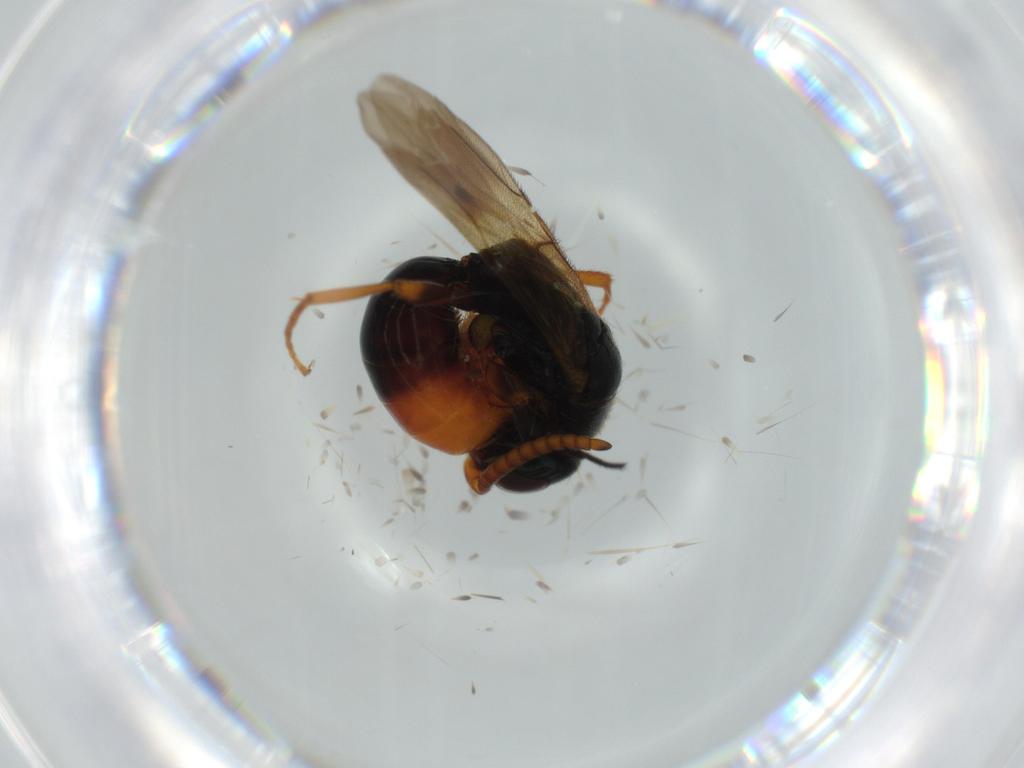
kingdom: Animalia
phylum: Arthropoda
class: Insecta
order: Hymenoptera
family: Bethylidae
